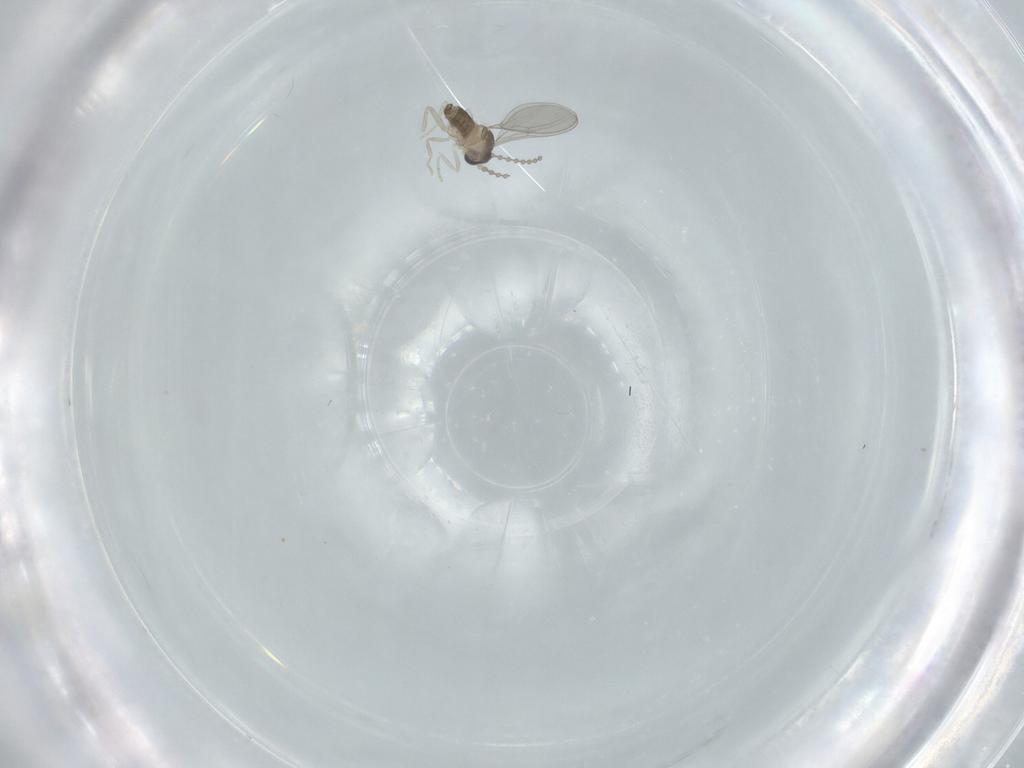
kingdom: Animalia
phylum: Arthropoda
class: Insecta
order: Diptera
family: Cecidomyiidae
